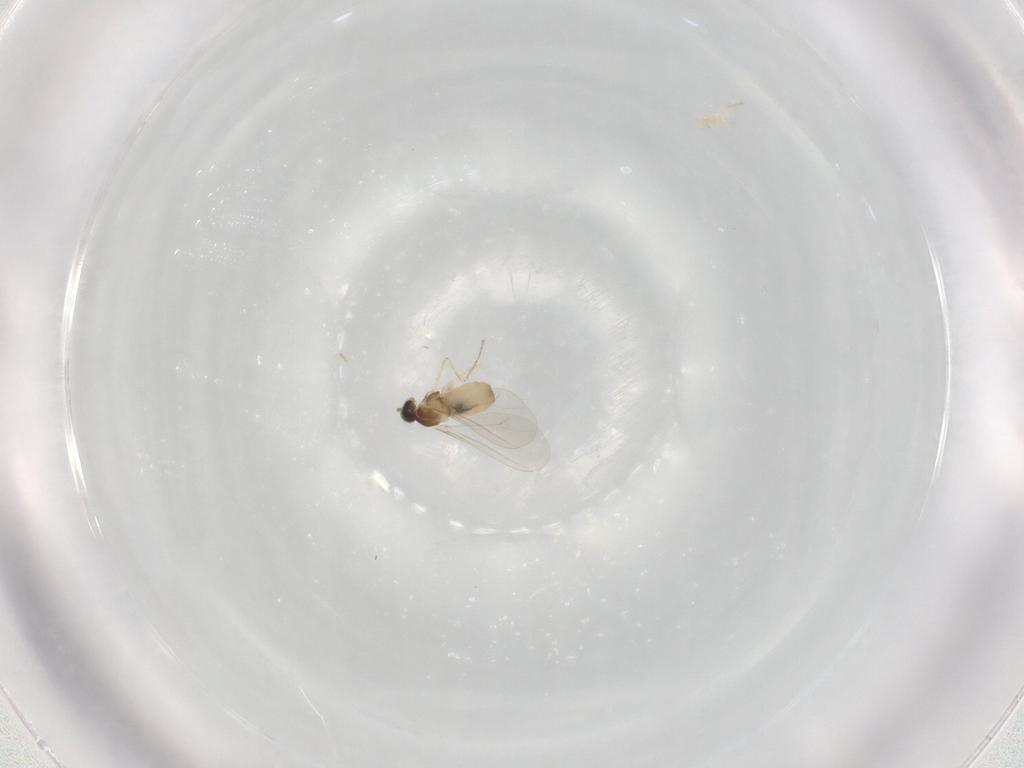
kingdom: Animalia
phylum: Arthropoda
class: Insecta
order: Diptera
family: Cecidomyiidae
